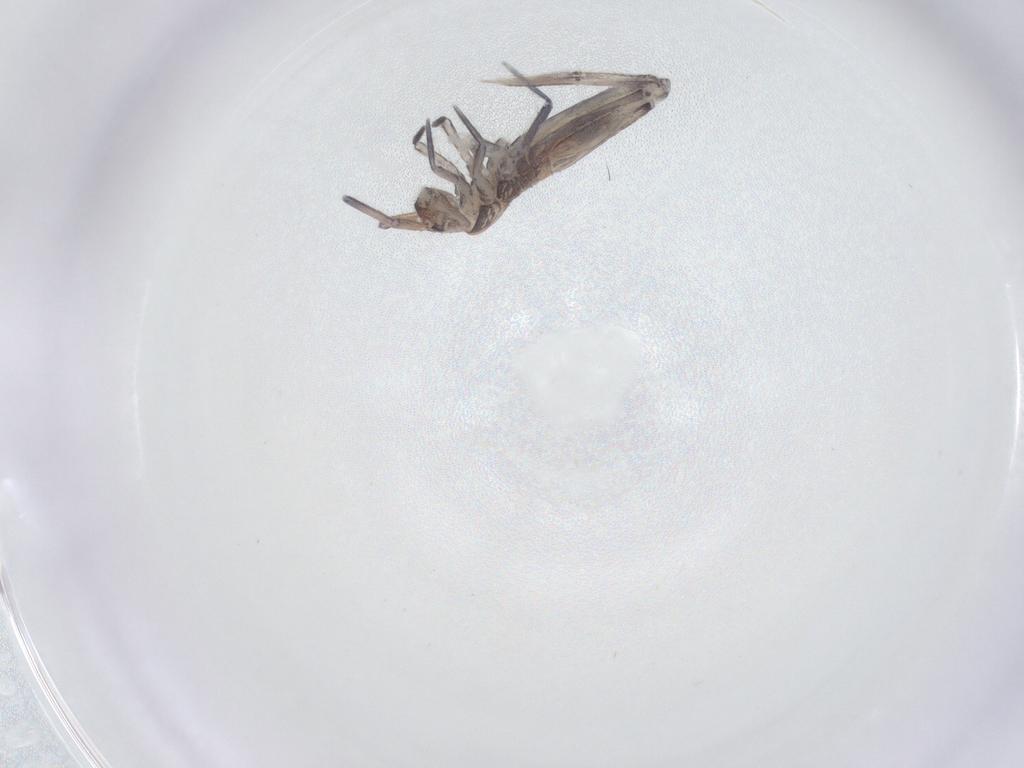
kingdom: Animalia
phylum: Arthropoda
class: Collembola
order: Entomobryomorpha
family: Entomobryidae
